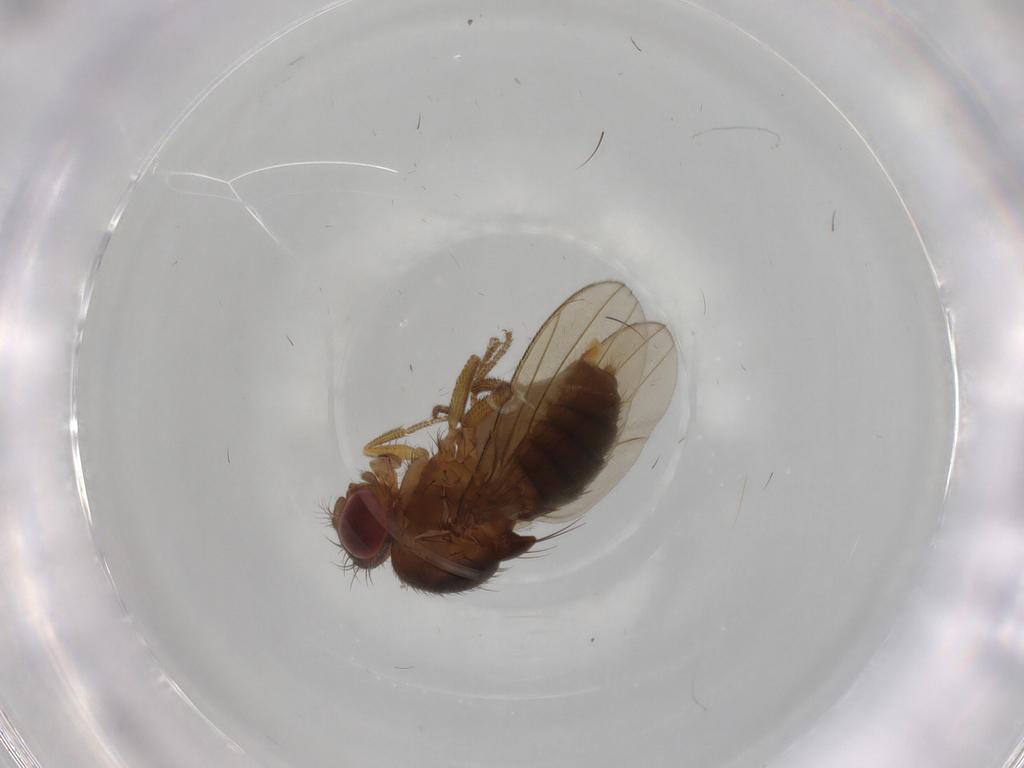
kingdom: Animalia
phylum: Arthropoda
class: Insecta
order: Diptera
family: Drosophilidae
